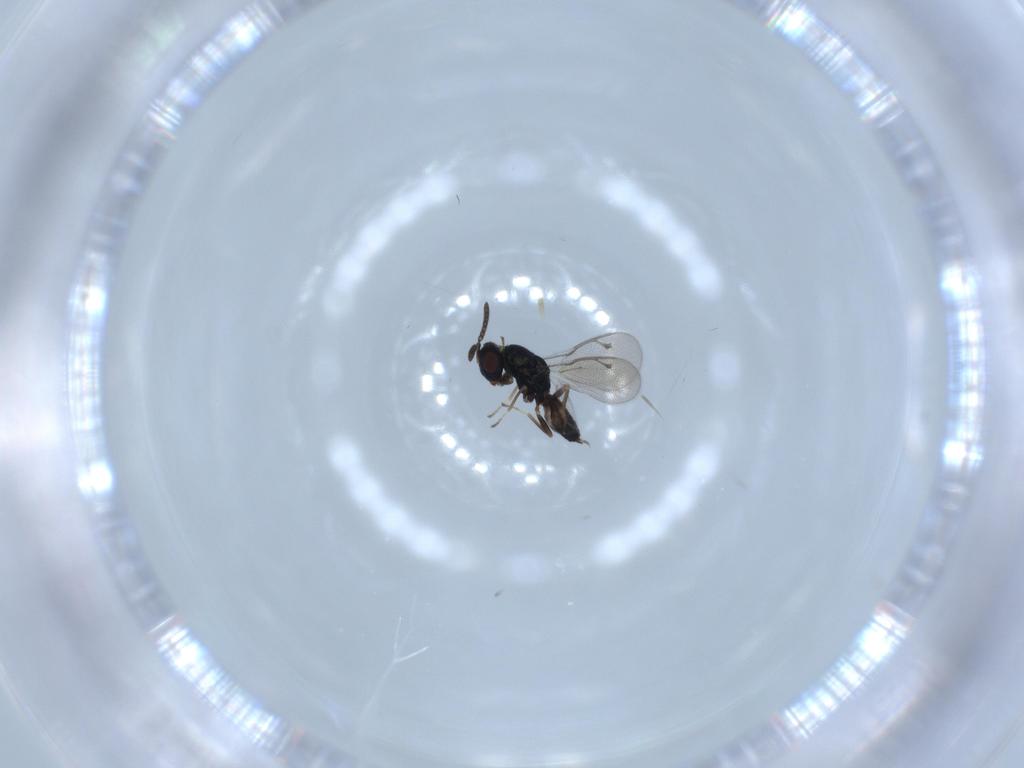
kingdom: Animalia
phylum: Arthropoda
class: Insecta
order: Hymenoptera
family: Pteromalidae
